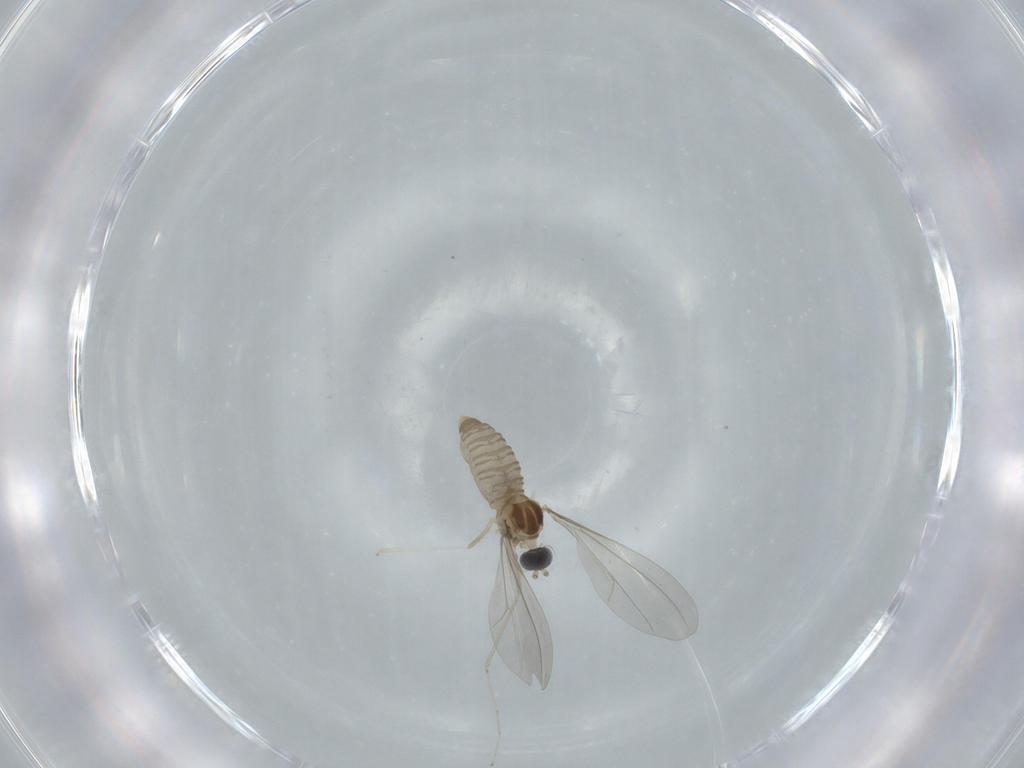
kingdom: Animalia
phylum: Arthropoda
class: Insecta
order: Diptera
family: Cecidomyiidae
